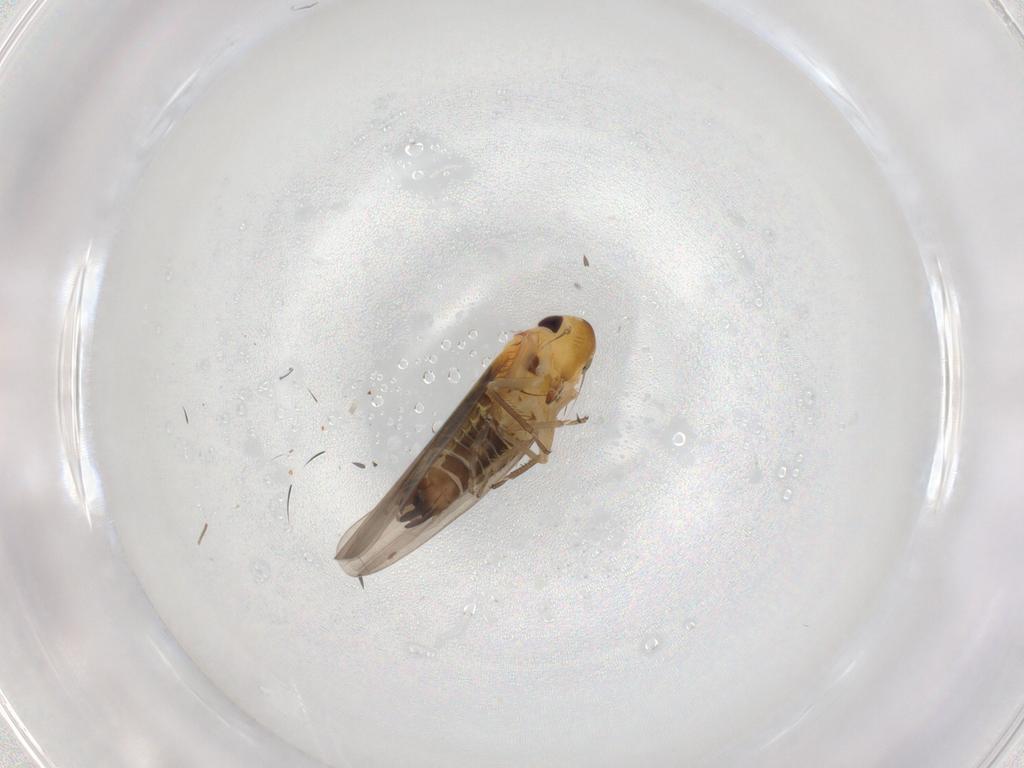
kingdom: Animalia
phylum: Arthropoda
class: Insecta
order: Hemiptera
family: Cicadellidae
